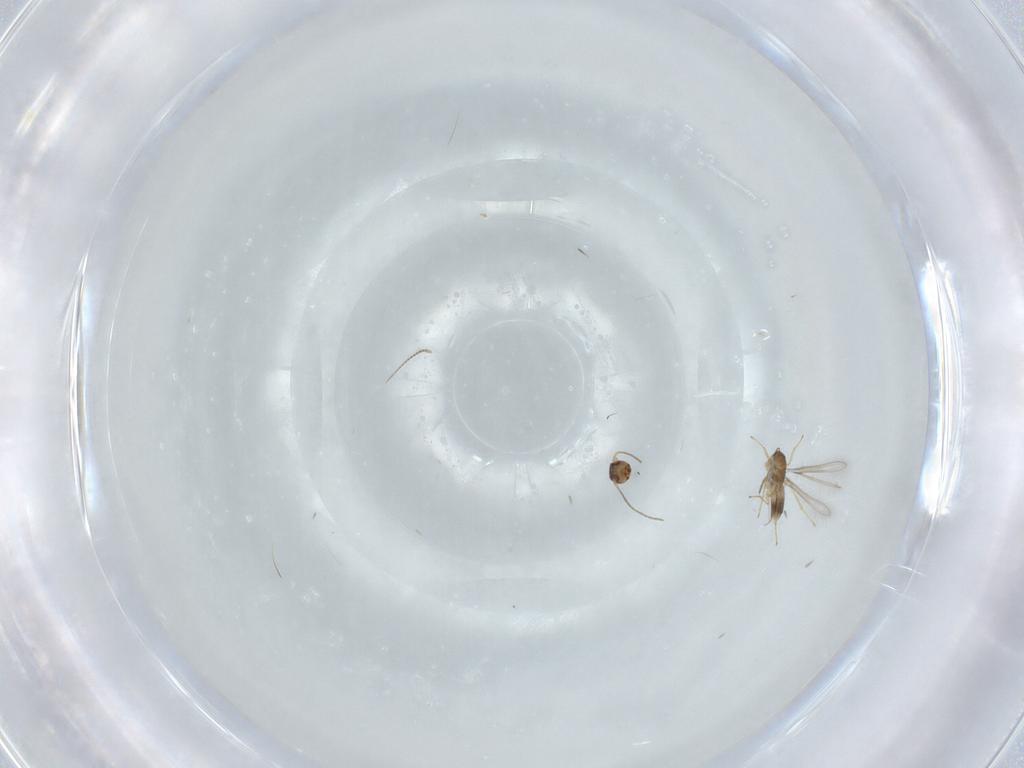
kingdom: Animalia
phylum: Arthropoda
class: Insecta
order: Hymenoptera
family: Mymaridae
